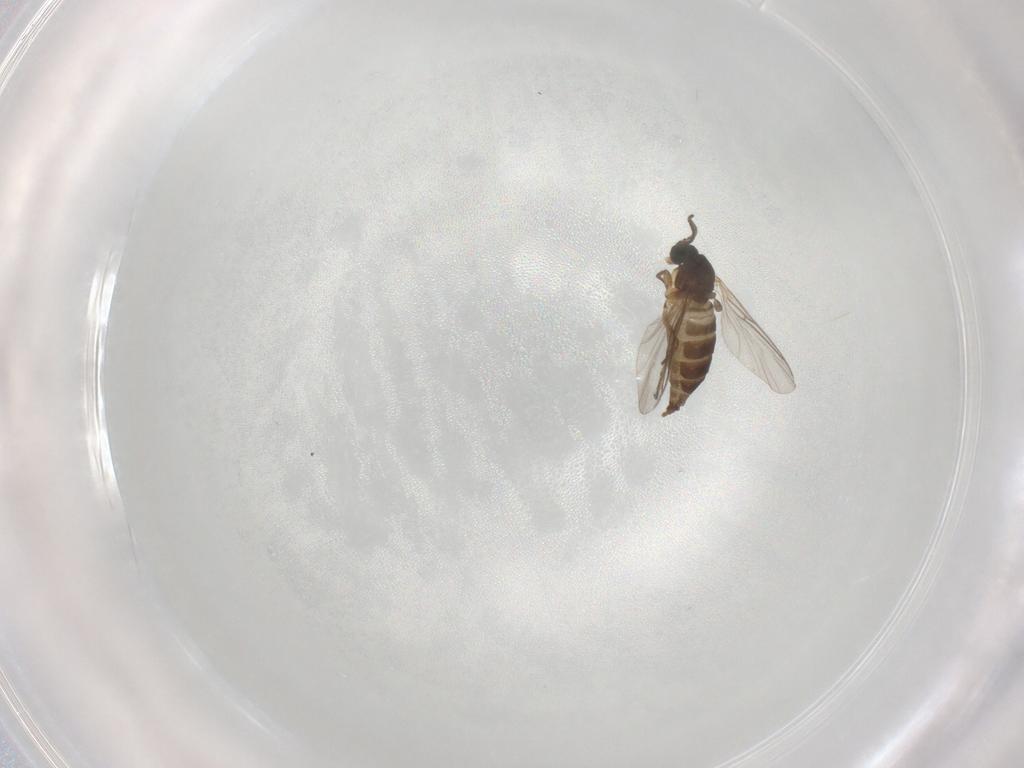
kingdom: Animalia
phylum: Arthropoda
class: Insecta
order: Diptera
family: Sciaridae
